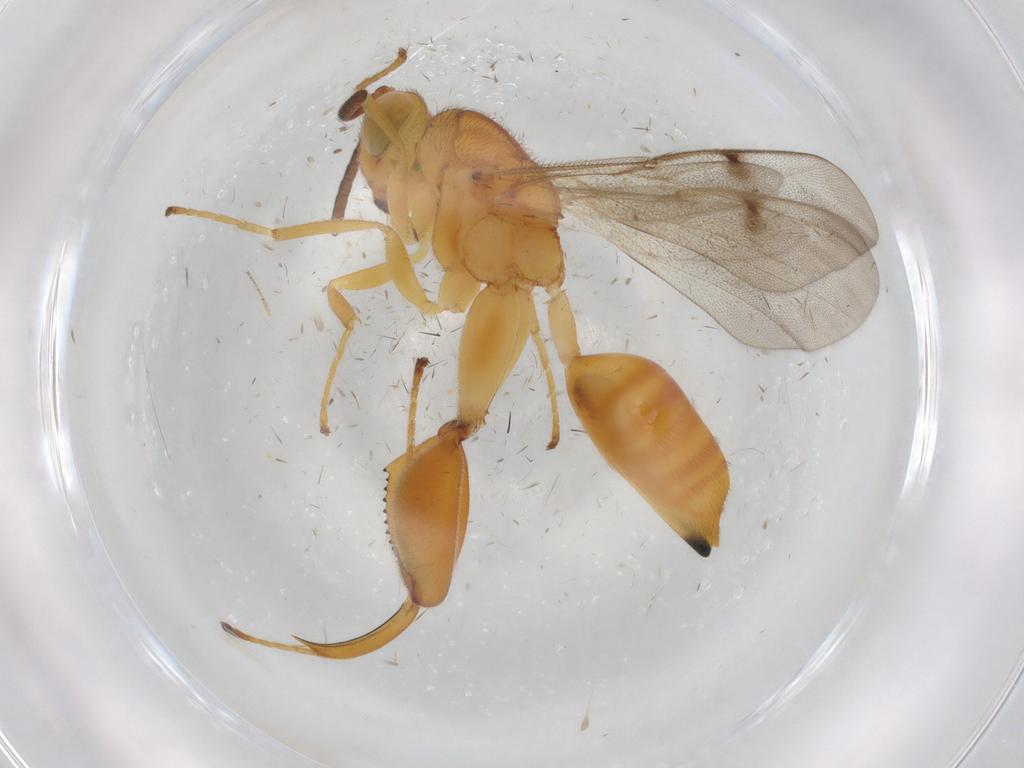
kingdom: Animalia
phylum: Arthropoda
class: Insecta
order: Hymenoptera
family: Chalcididae
